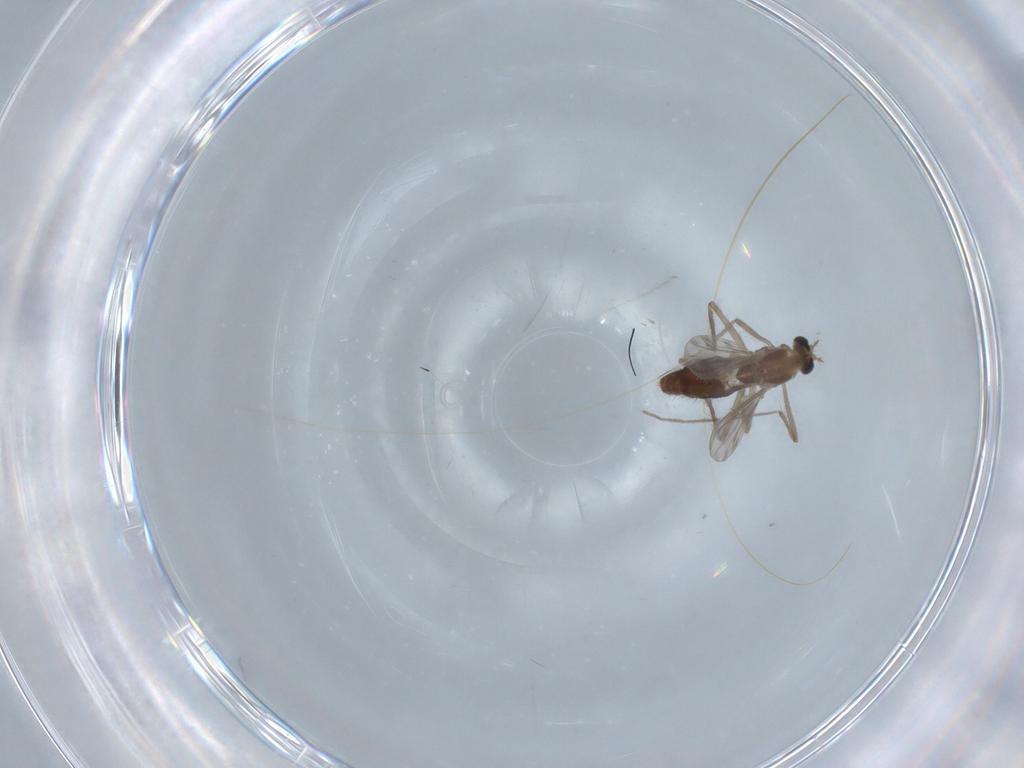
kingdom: Animalia
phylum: Arthropoda
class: Insecta
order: Diptera
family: Chironomidae
